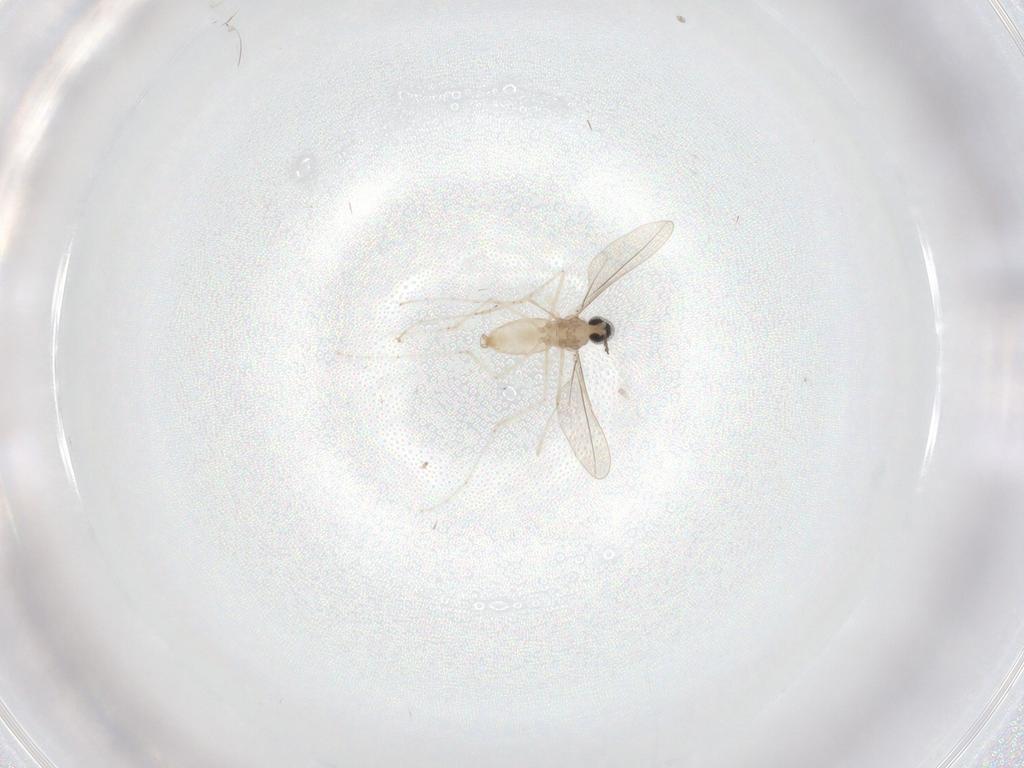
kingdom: Animalia
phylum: Arthropoda
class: Insecta
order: Diptera
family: Cecidomyiidae
